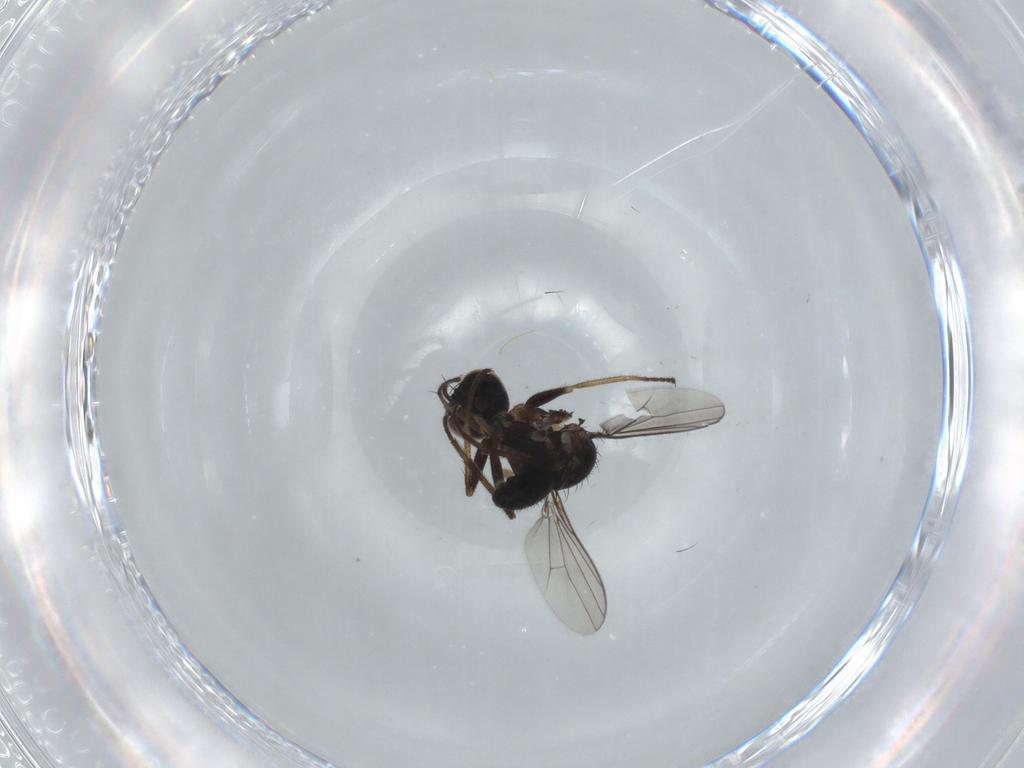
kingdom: Animalia
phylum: Arthropoda
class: Insecta
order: Diptera
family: Dolichopodidae
